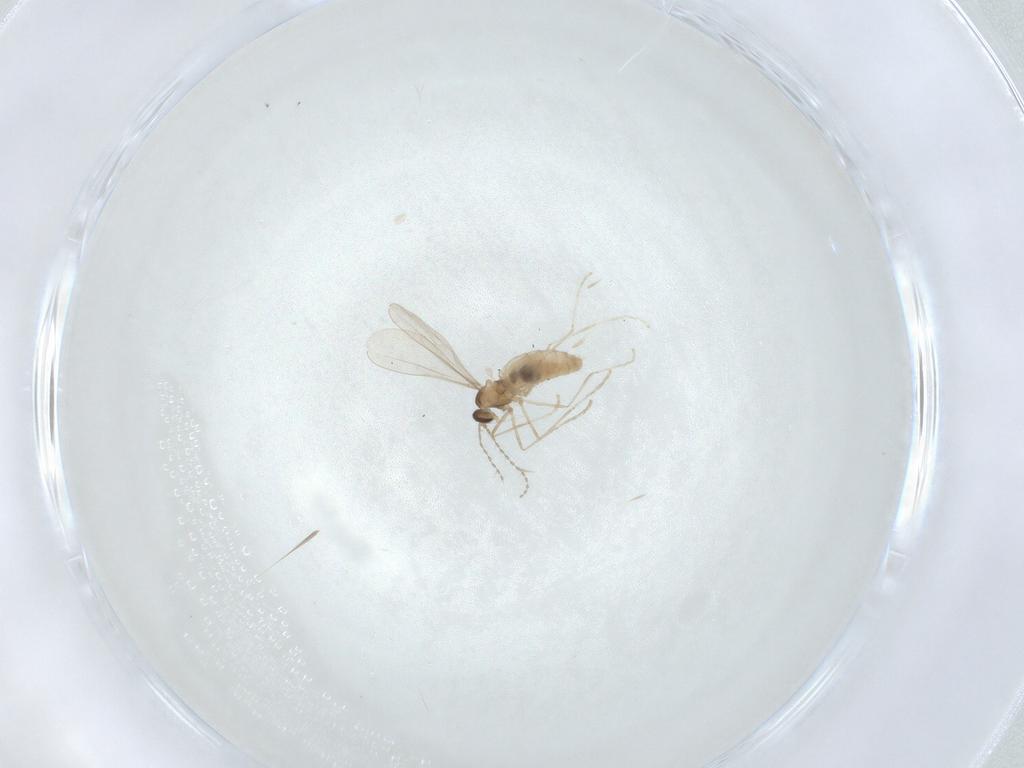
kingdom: Animalia
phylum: Arthropoda
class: Insecta
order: Diptera
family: Cecidomyiidae
